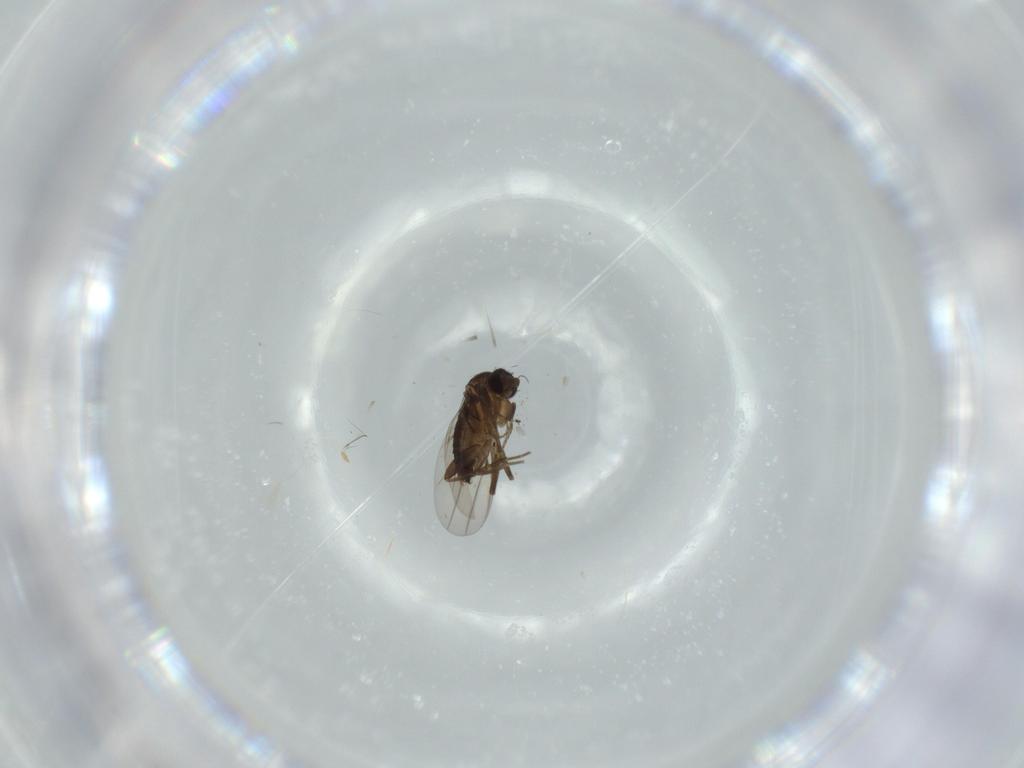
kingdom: Animalia
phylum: Arthropoda
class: Insecta
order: Diptera
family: Phoridae
